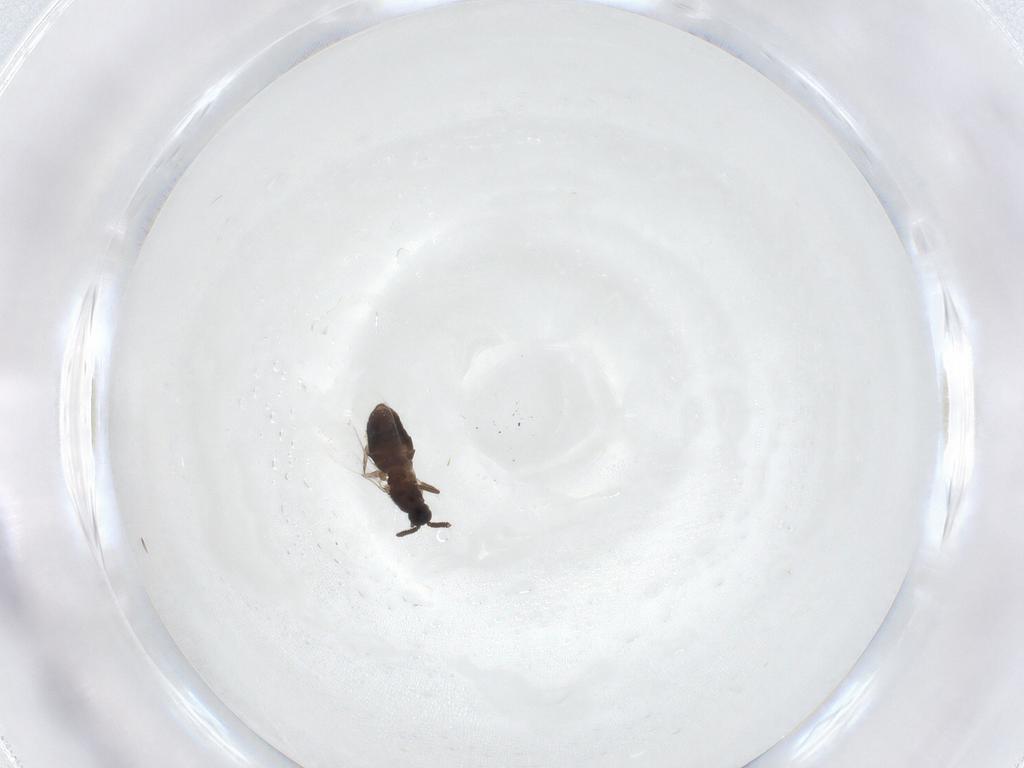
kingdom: Animalia
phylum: Arthropoda
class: Insecta
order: Diptera
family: Scatopsidae
